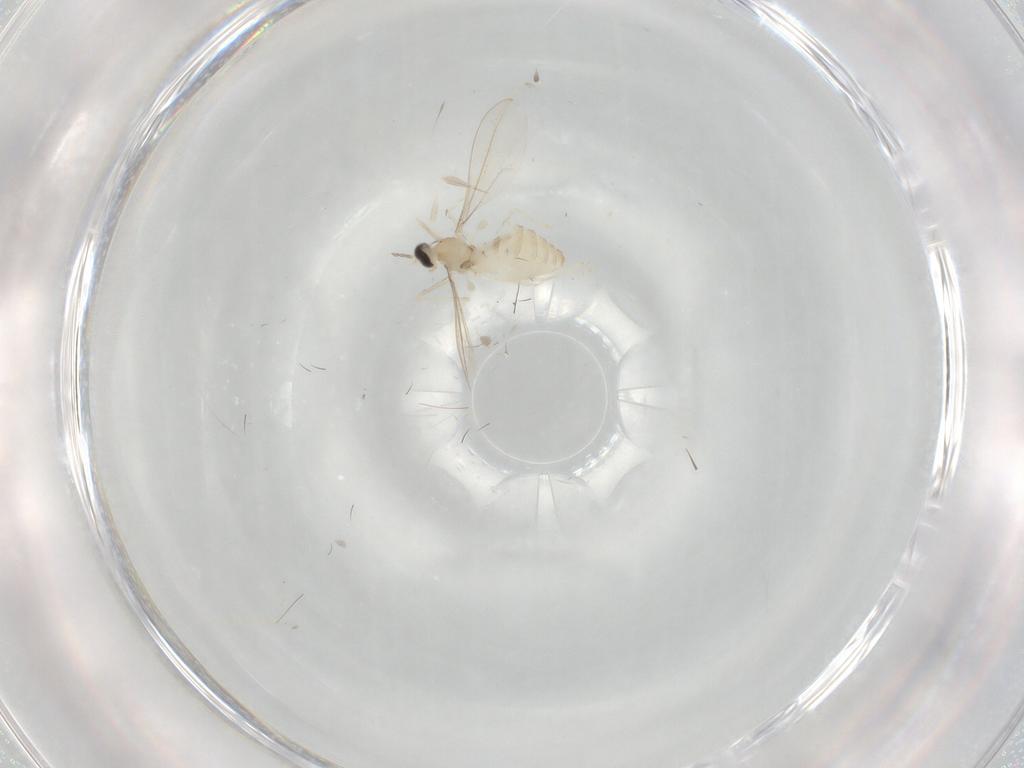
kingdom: Animalia
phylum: Arthropoda
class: Insecta
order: Diptera
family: Cecidomyiidae
